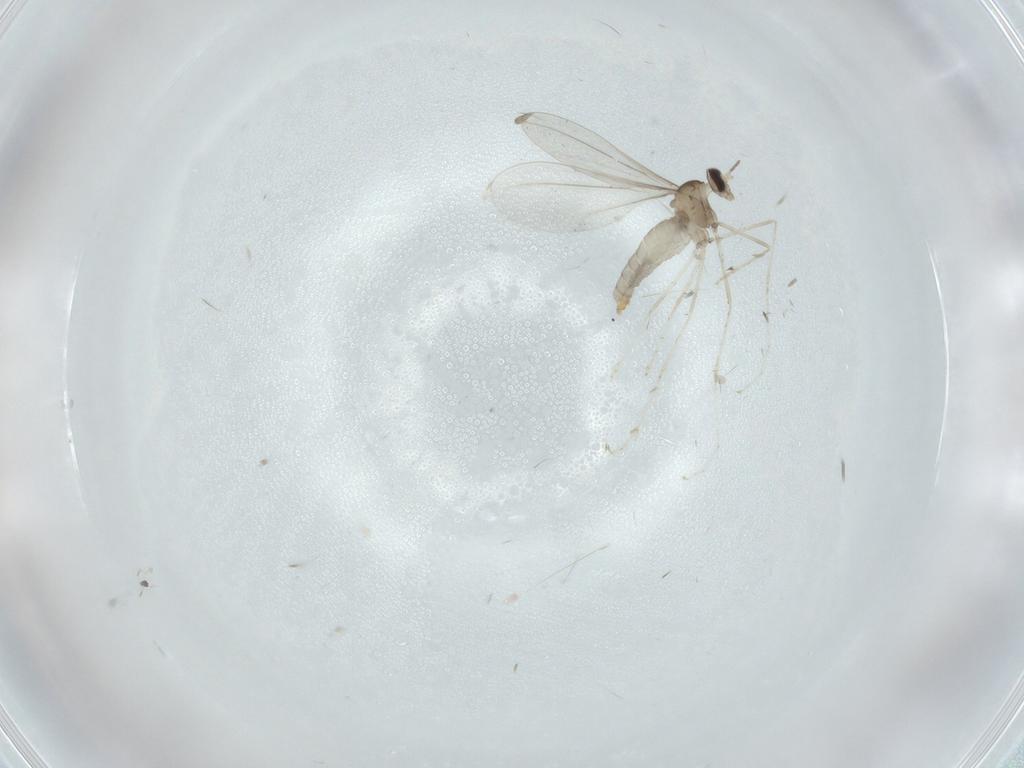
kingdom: Animalia
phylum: Arthropoda
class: Insecta
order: Diptera
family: Cecidomyiidae
